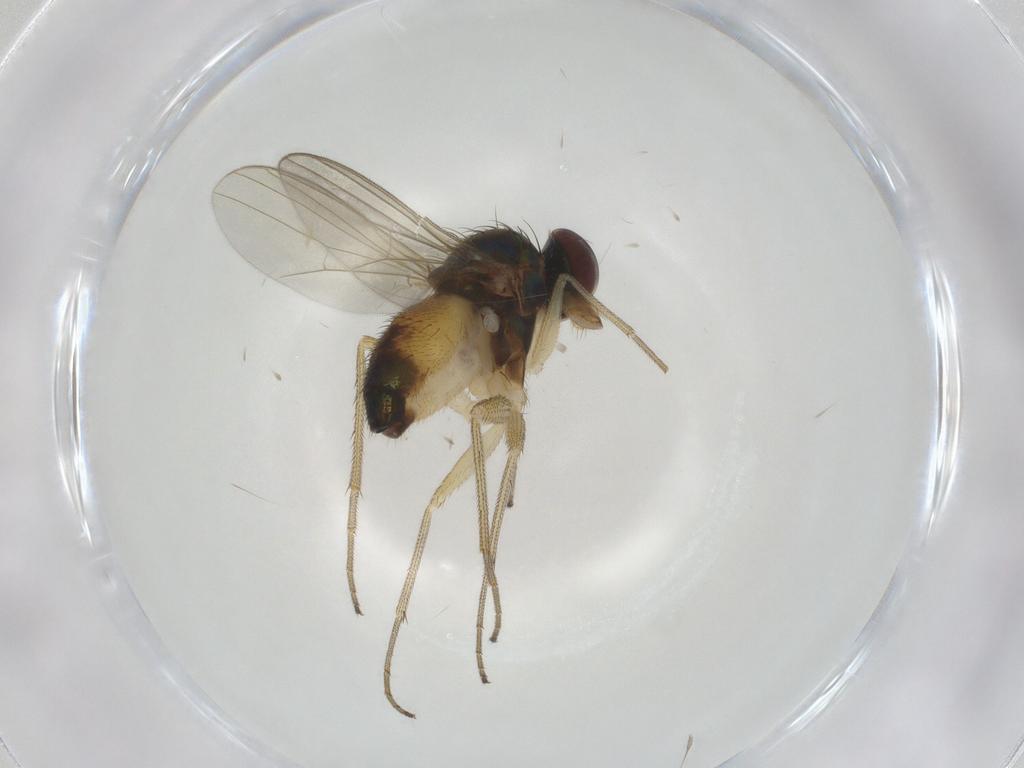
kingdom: Animalia
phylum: Arthropoda
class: Insecta
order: Diptera
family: Dolichopodidae
